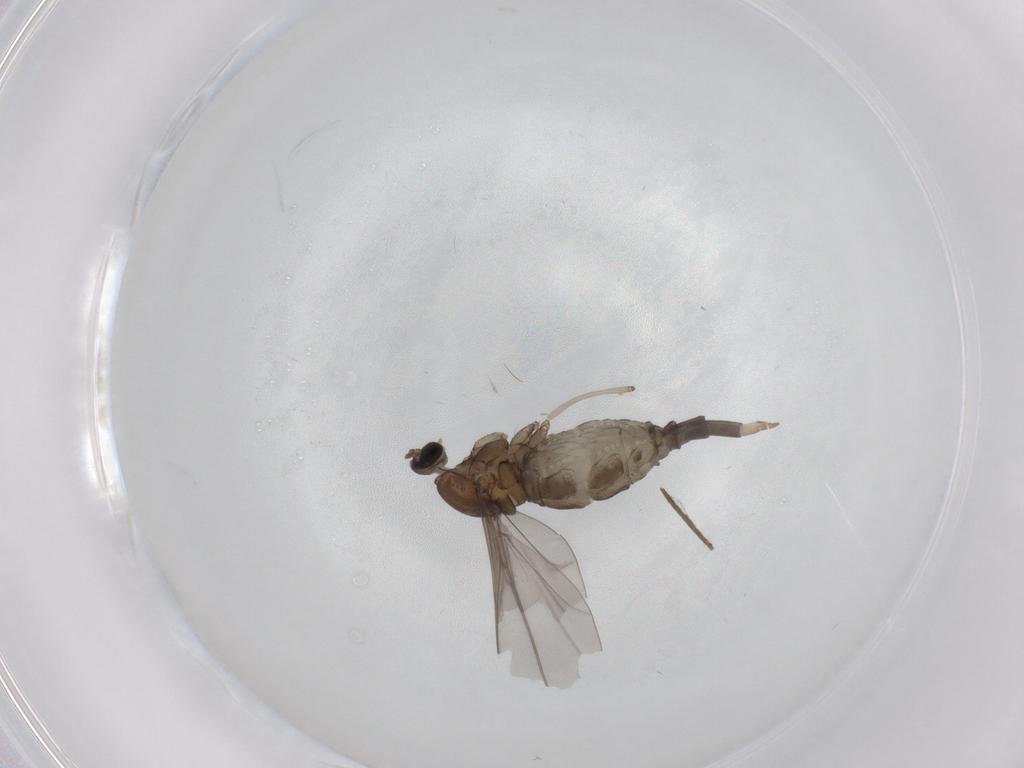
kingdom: Animalia
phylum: Arthropoda
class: Insecta
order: Diptera
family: Cecidomyiidae
